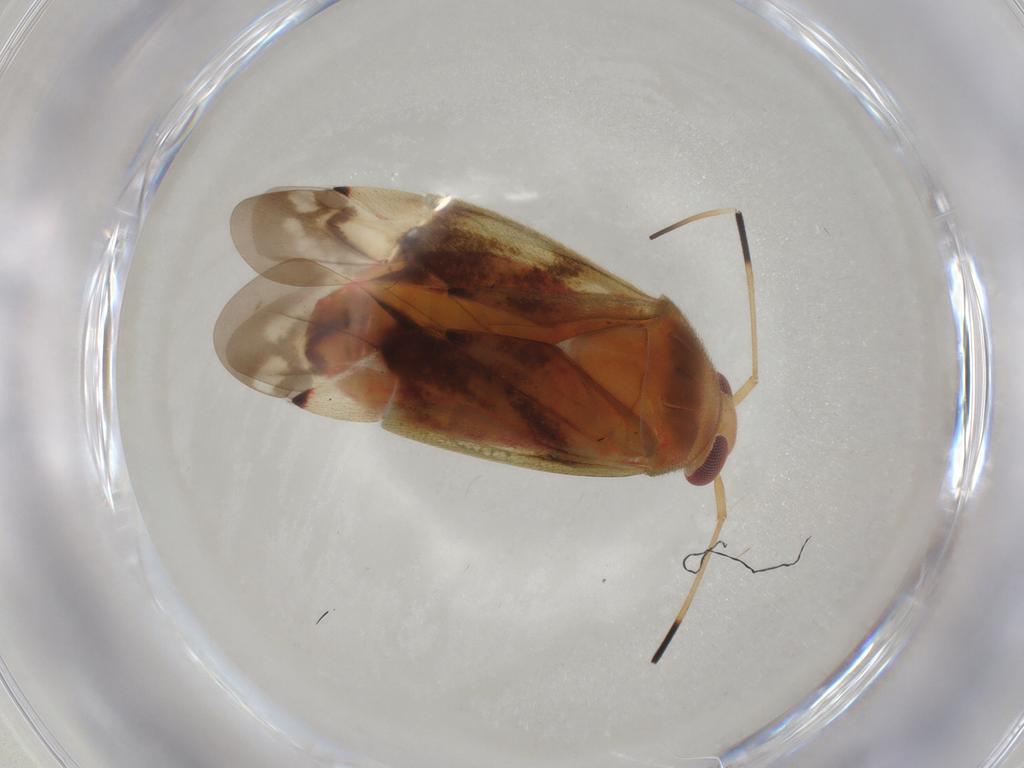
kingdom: Animalia
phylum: Arthropoda
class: Insecta
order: Hemiptera
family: Miridae
